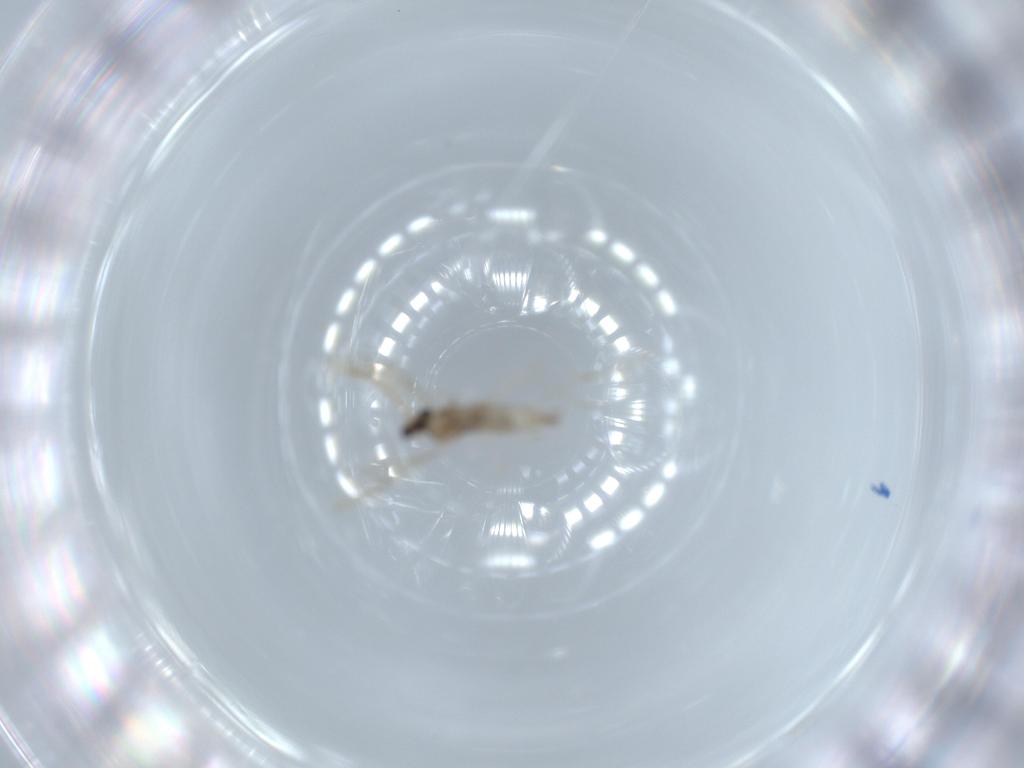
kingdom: Animalia
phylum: Arthropoda
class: Insecta
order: Diptera
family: Cecidomyiidae
